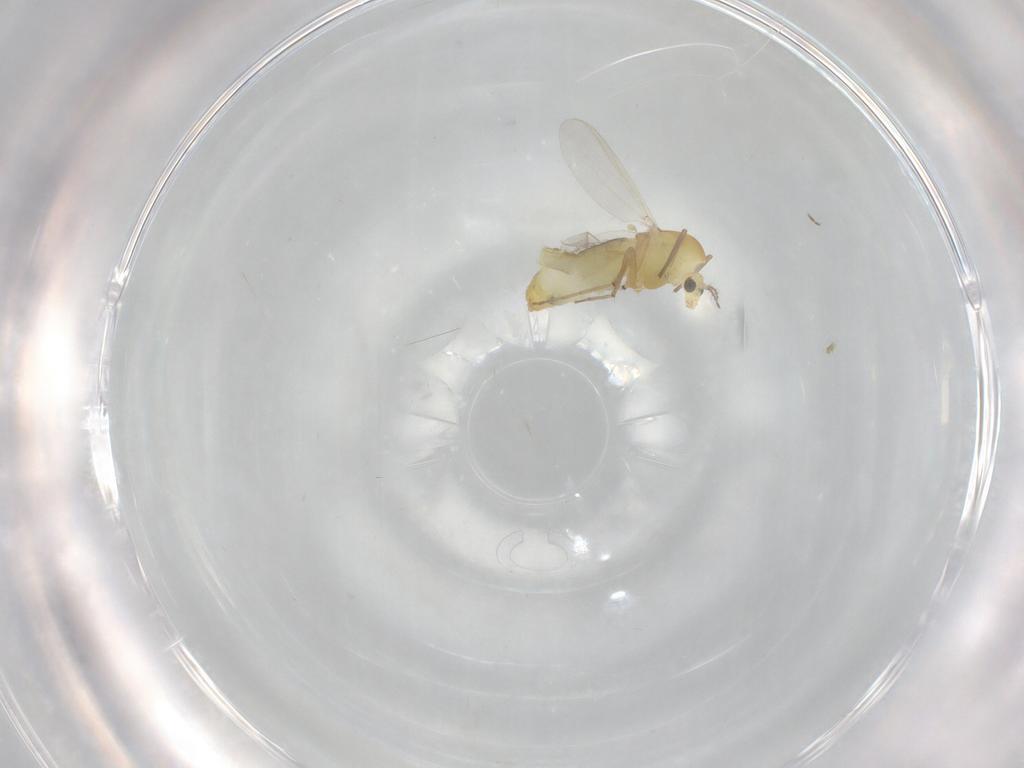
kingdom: Animalia
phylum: Arthropoda
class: Insecta
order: Diptera
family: Chironomidae
